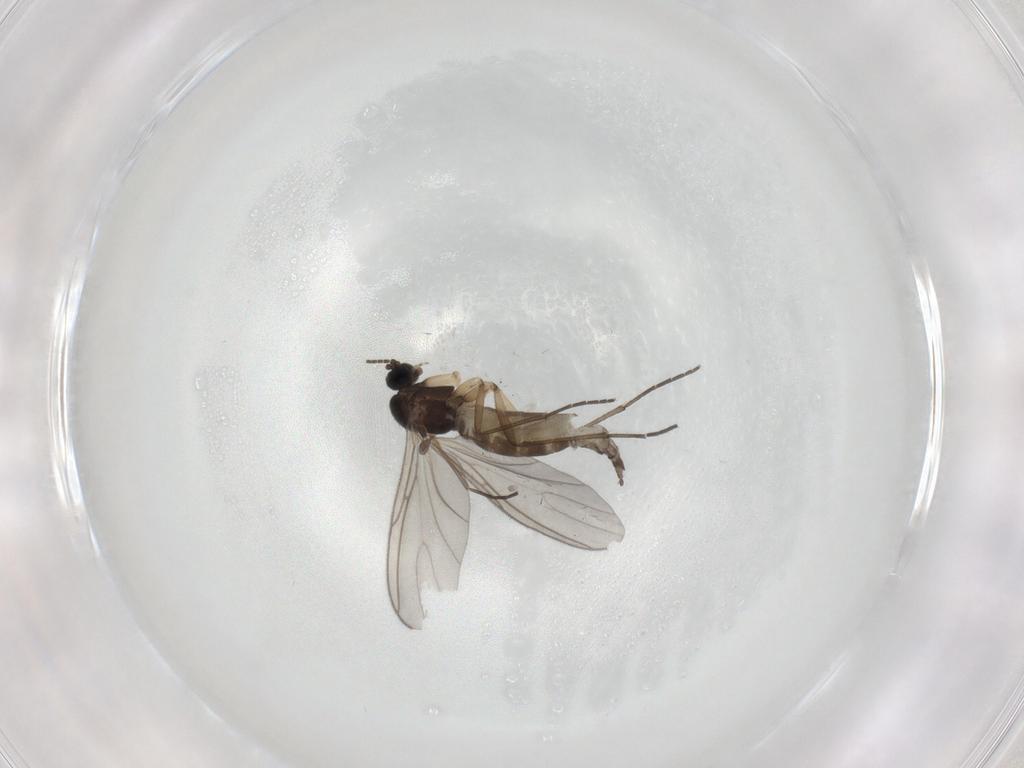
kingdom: Animalia
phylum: Arthropoda
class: Insecta
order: Diptera
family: Sciaridae
